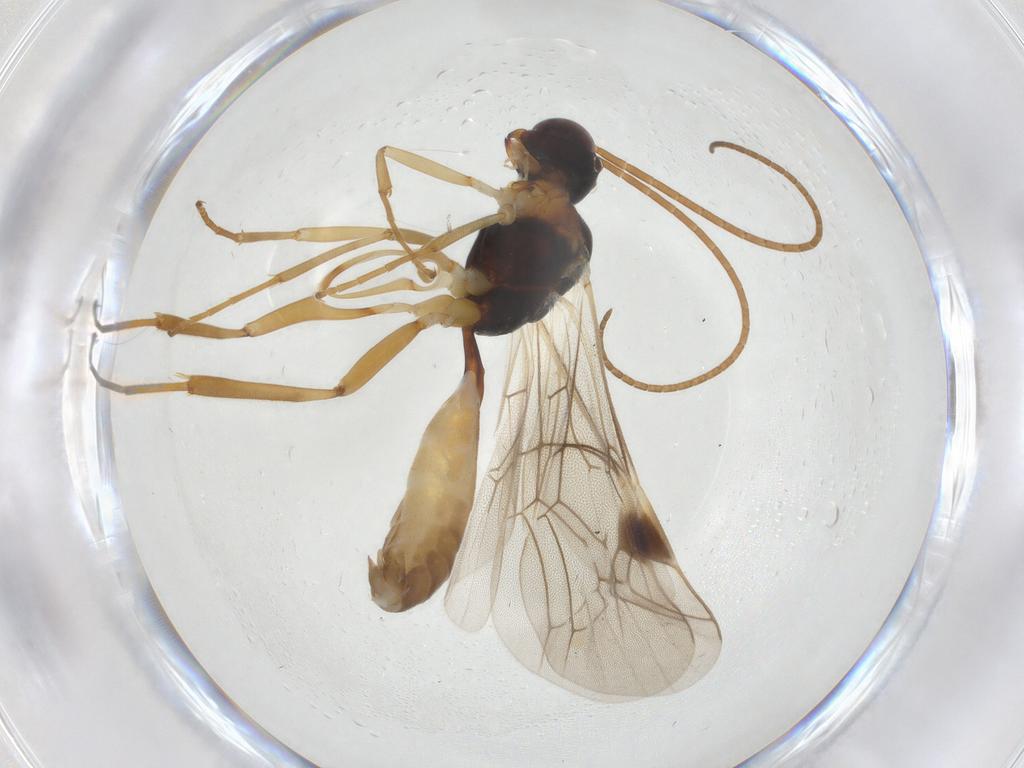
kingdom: Animalia
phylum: Arthropoda
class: Insecta
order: Hymenoptera
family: Ichneumonidae
